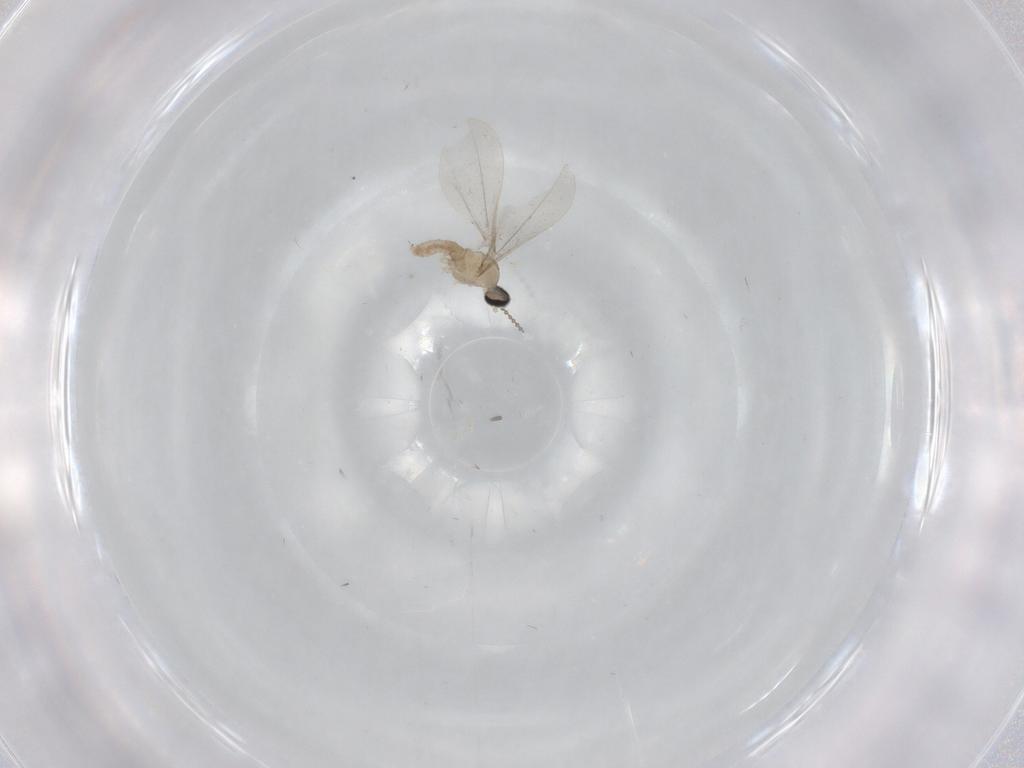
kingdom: Animalia
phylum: Arthropoda
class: Insecta
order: Diptera
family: Cecidomyiidae
